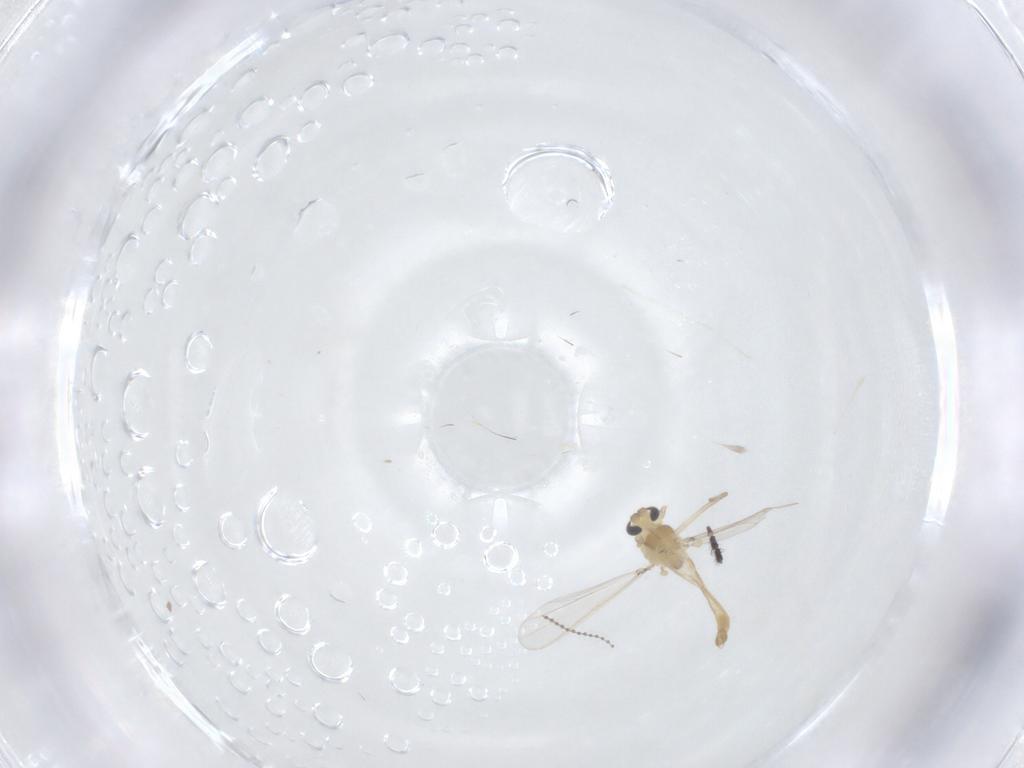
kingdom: Animalia
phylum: Arthropoda
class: Insecta
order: Diptera
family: Chironomidae
